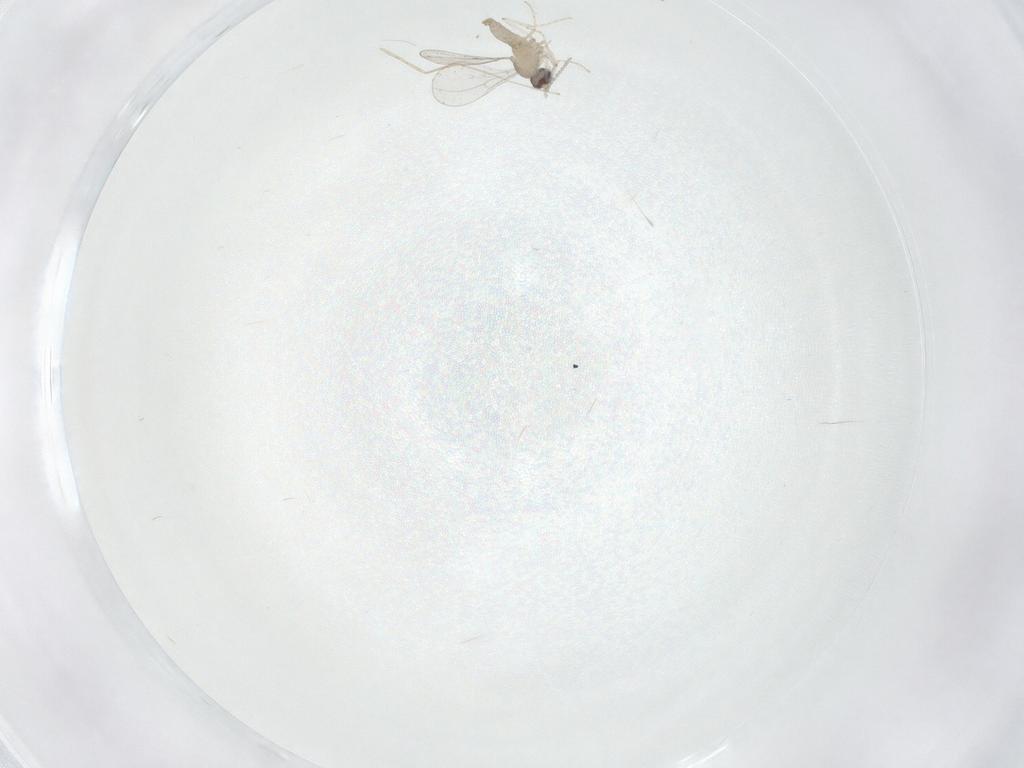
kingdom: Animalia
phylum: Arthropoda
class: Insecta
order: Diptera
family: Cecidomyiidae
